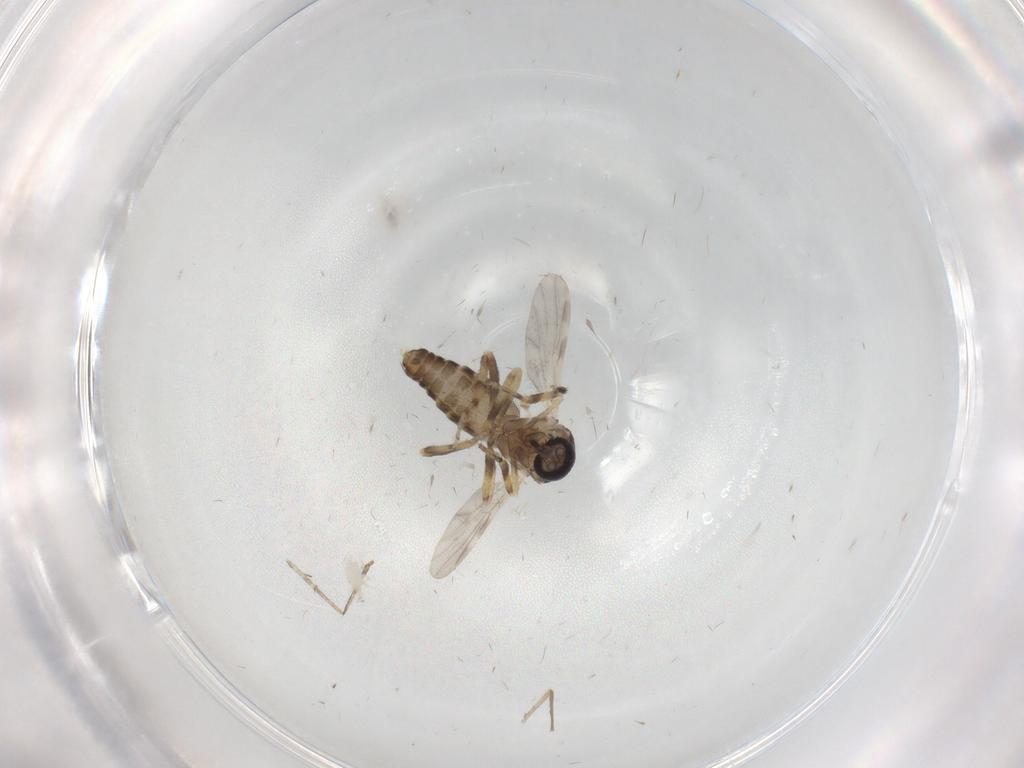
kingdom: Animalia
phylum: Arthropoda
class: Insecta
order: Diptera
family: Ceratopogonidae
